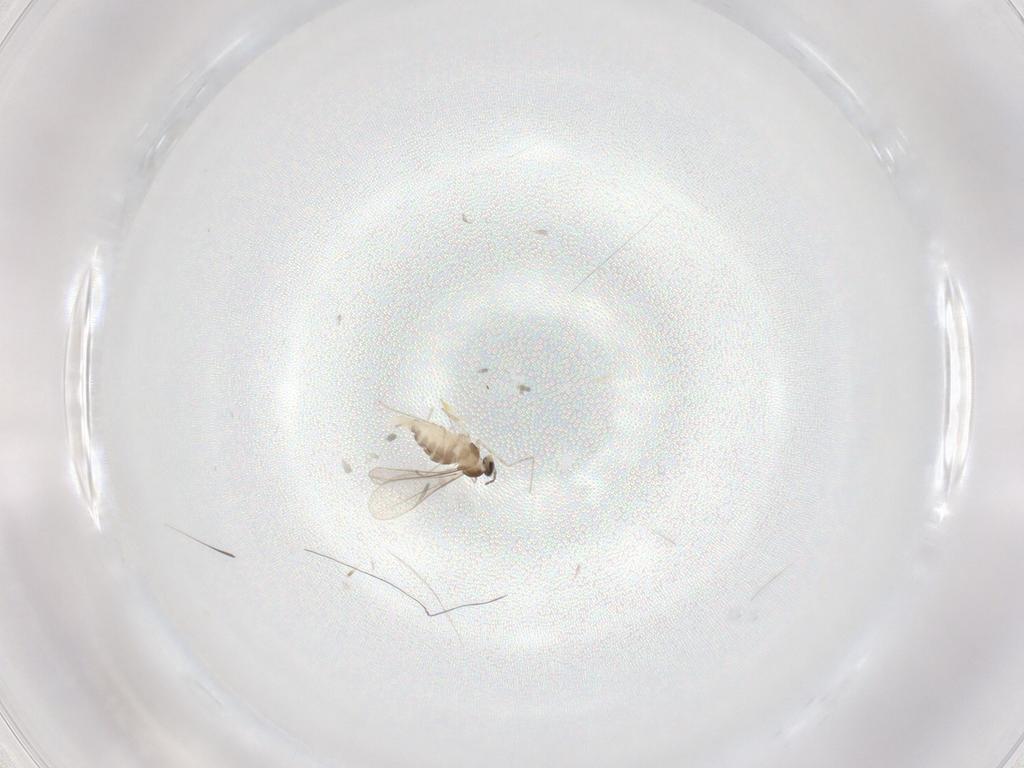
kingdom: Animalia
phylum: Arthropoda
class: Insecta
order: Diptera
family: Cecidomyiidae
